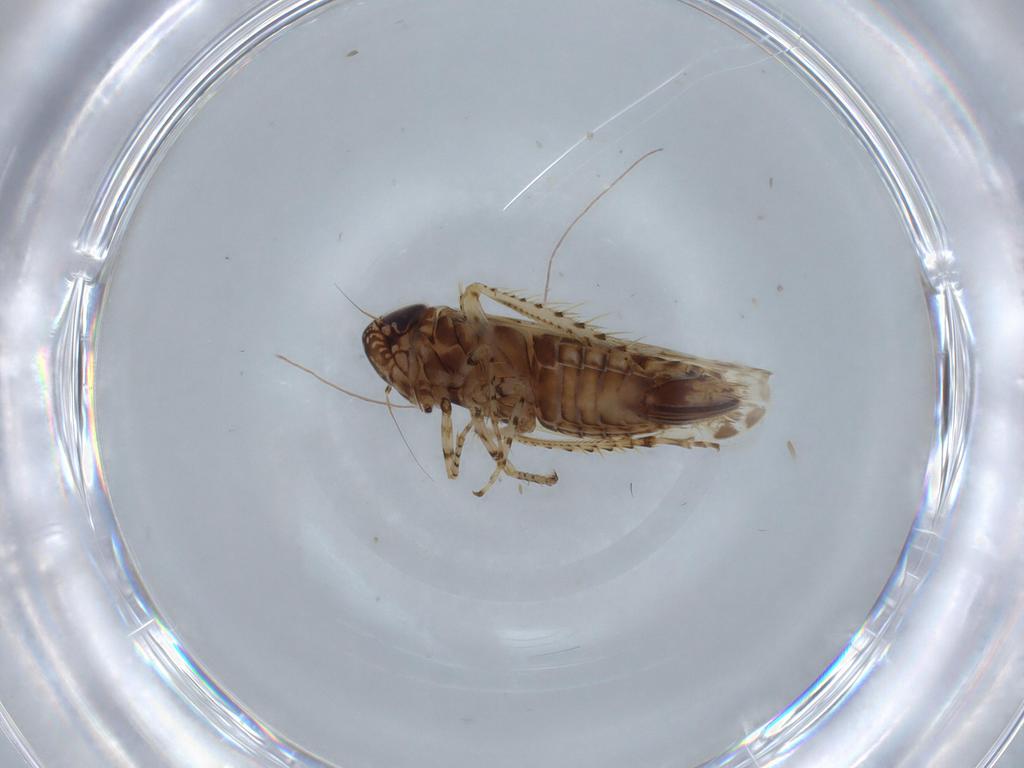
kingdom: Animalia
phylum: Arthropoda
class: Insecta
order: Hemiptera
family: Cicadellidae
